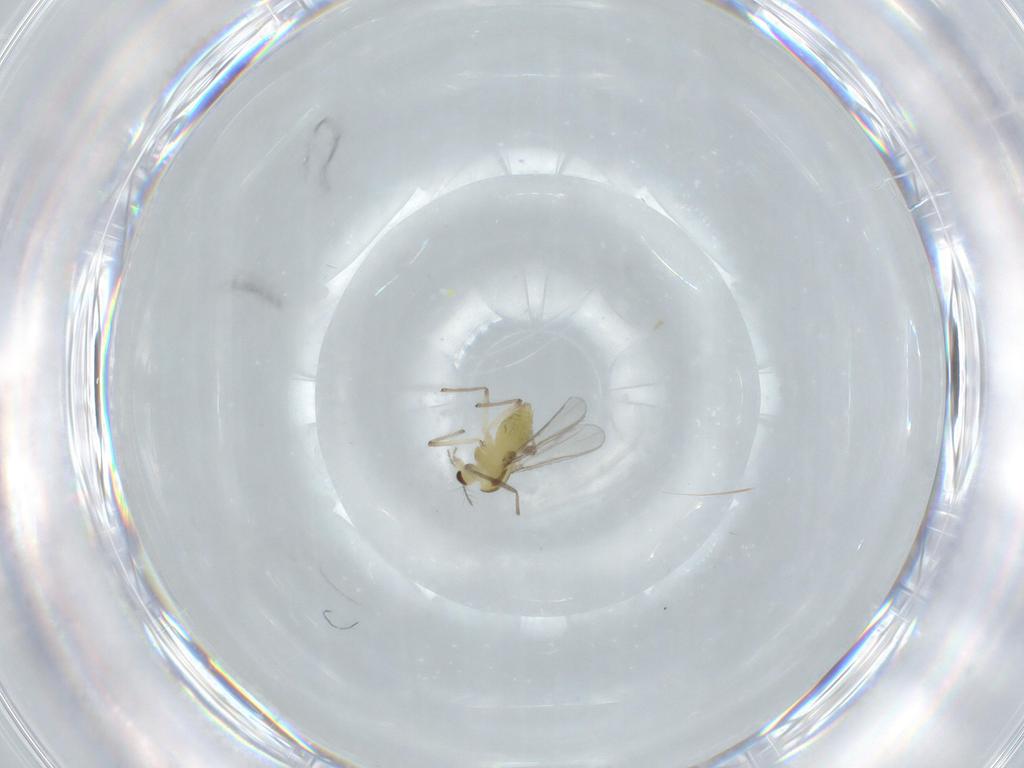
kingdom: Animalia
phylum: Arthropoda
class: Insecta
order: Diptera
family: Chironomidae
